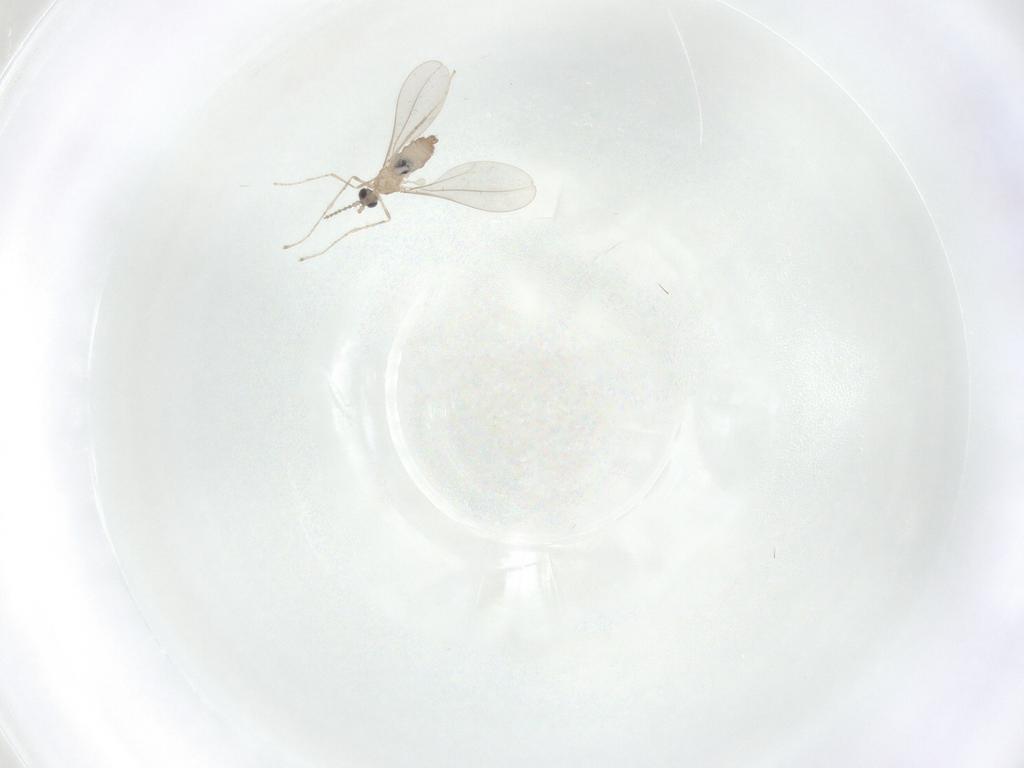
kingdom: Animalia
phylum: Arthropoda
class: Insecta
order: Diptera
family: Cecidomyiidae
